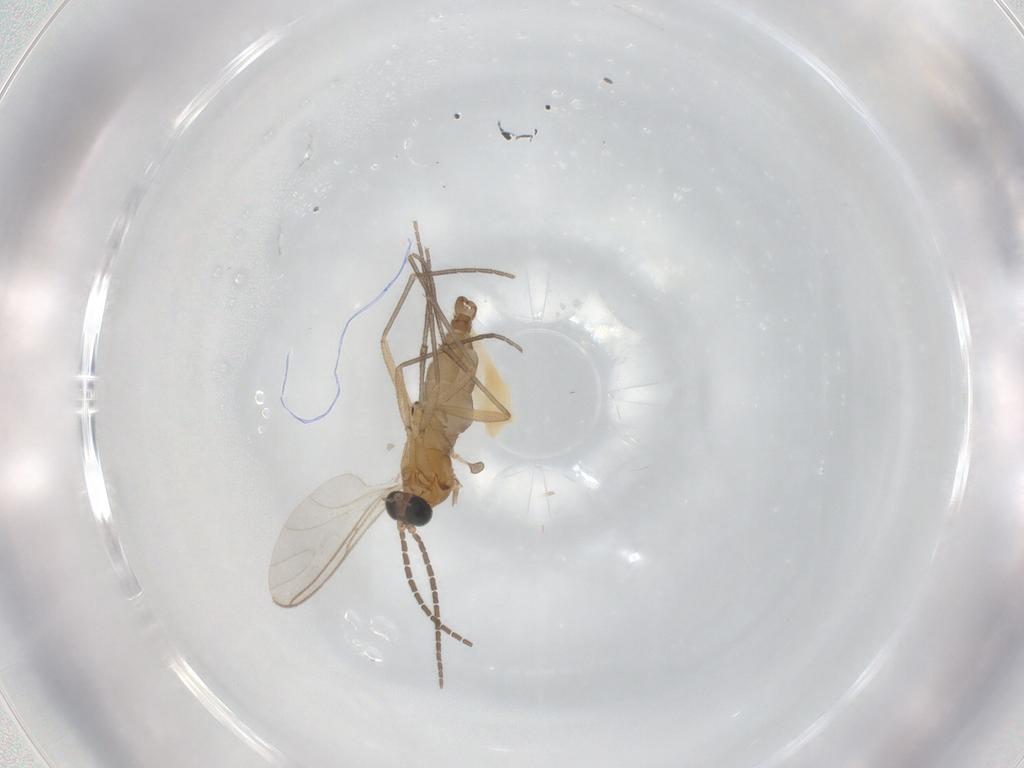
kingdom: Animalia
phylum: Arthropoda
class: Insecta
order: Diptera
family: Sciaridae
